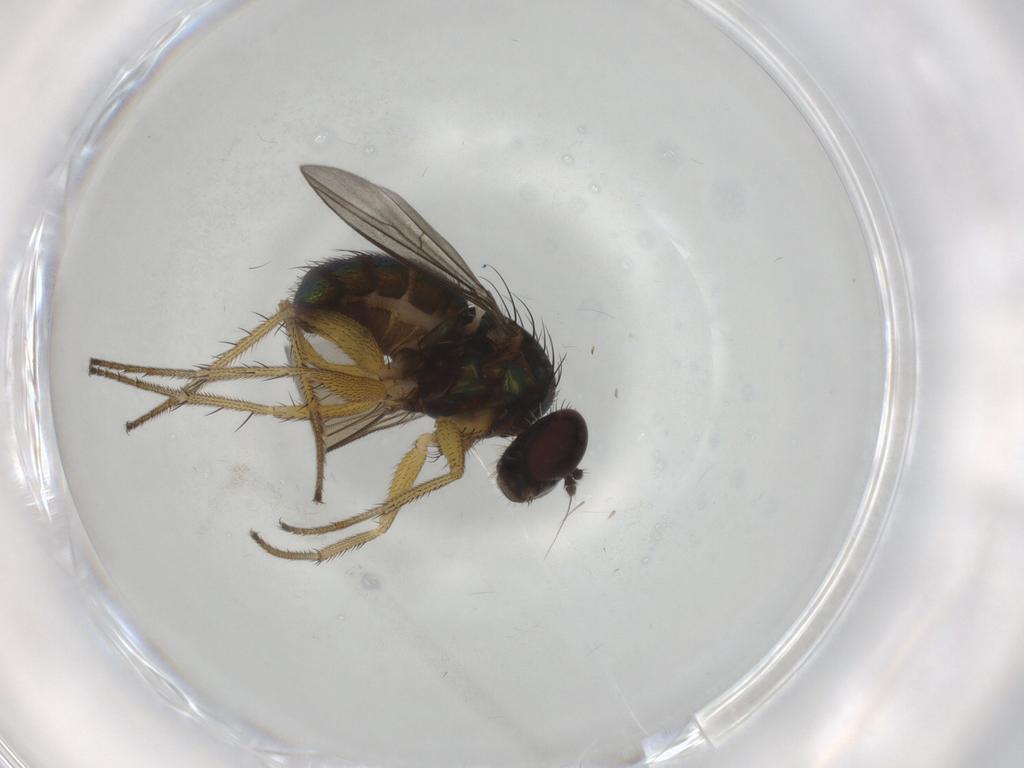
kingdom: Animalia
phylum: Arthropoda
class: Insecta
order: Diptera
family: Dolichopodidae
